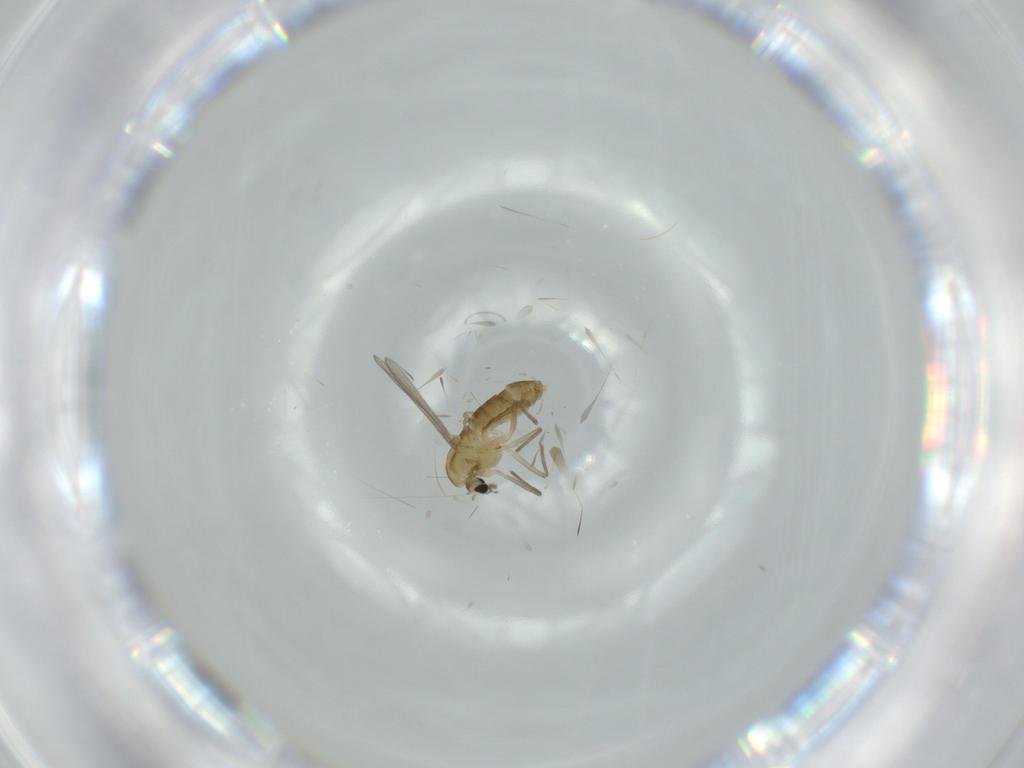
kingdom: Animalia
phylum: Arthropoda
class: Insecta
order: Diptera
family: Chironomidae
